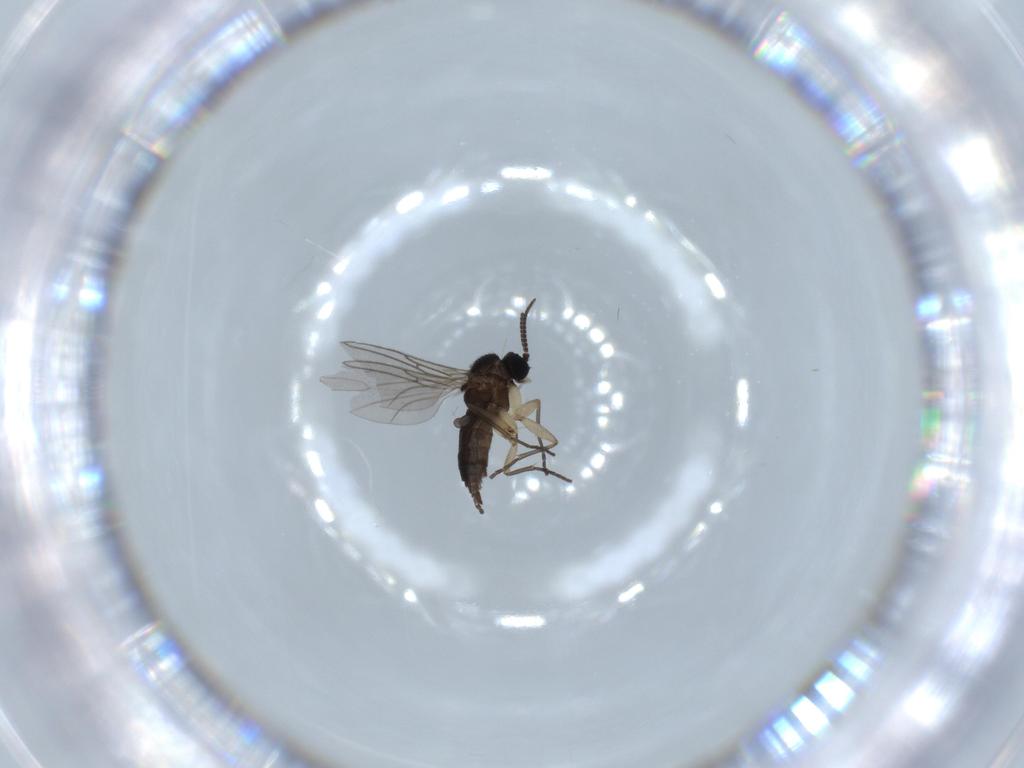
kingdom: Animalia
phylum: Arthropoda
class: Insecta
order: Diptera
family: Sciaridae
